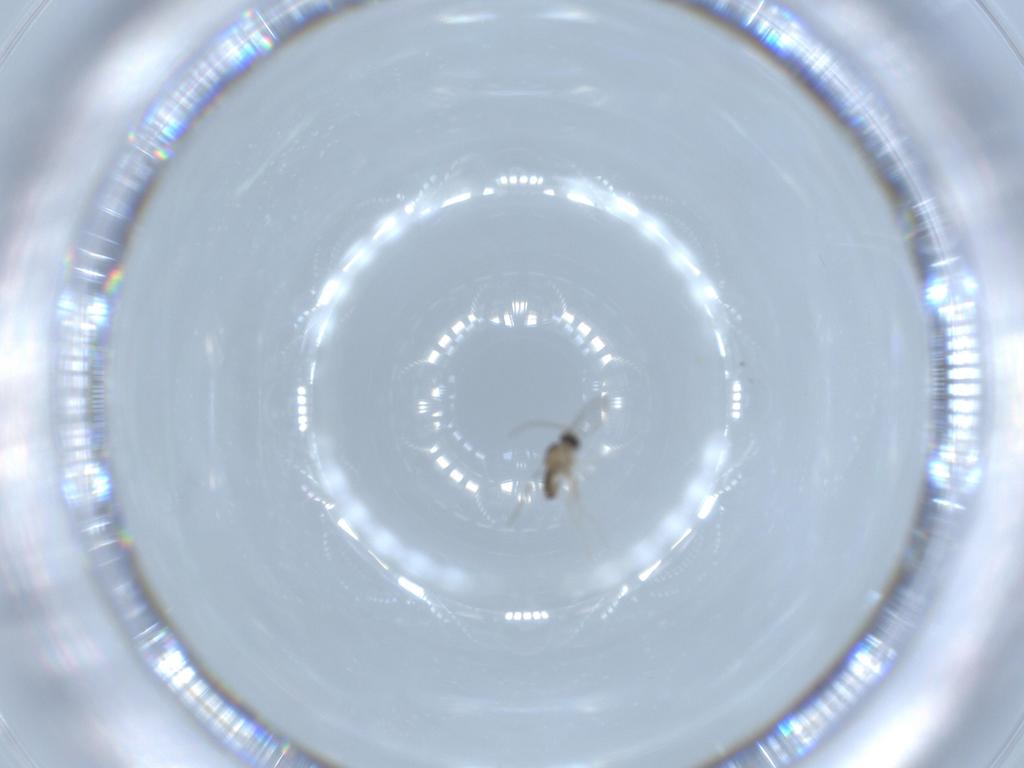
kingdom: Animalia
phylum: Arthropoda
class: Insecta
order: Diptera
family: Cecidomyiidae
